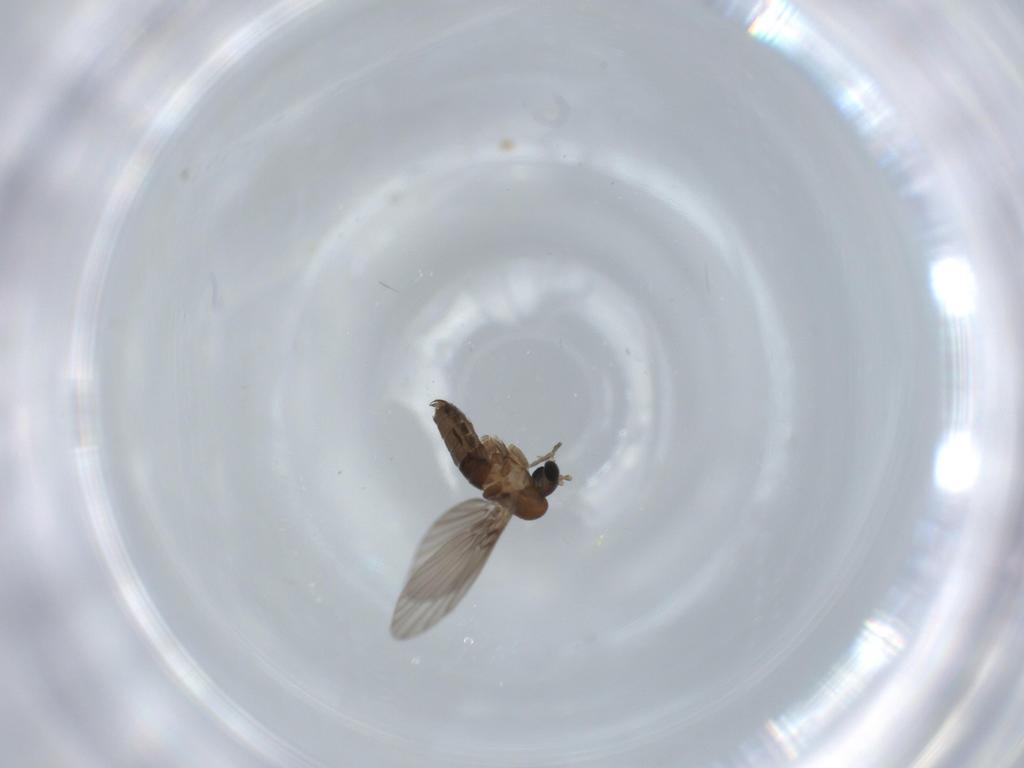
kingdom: Animalia
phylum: Arthropoda
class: Insecta
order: Diptera
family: Psychodidae
